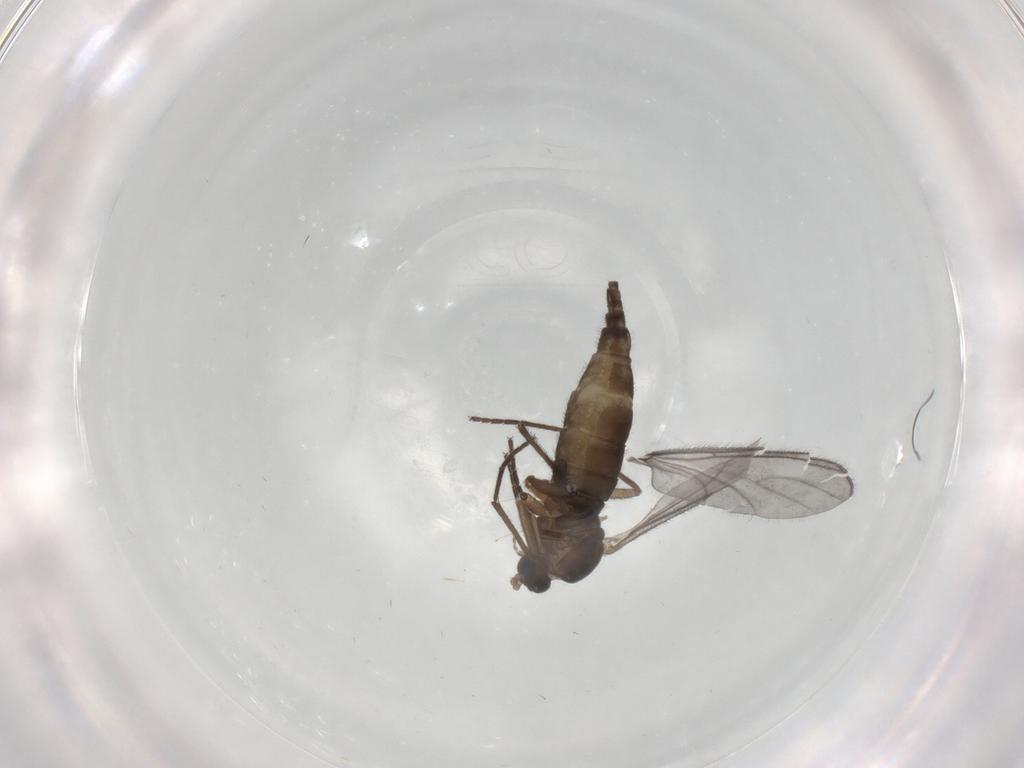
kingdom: Animalia
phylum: Arthropoda
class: Insecta
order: Diptera
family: Sciaridae
